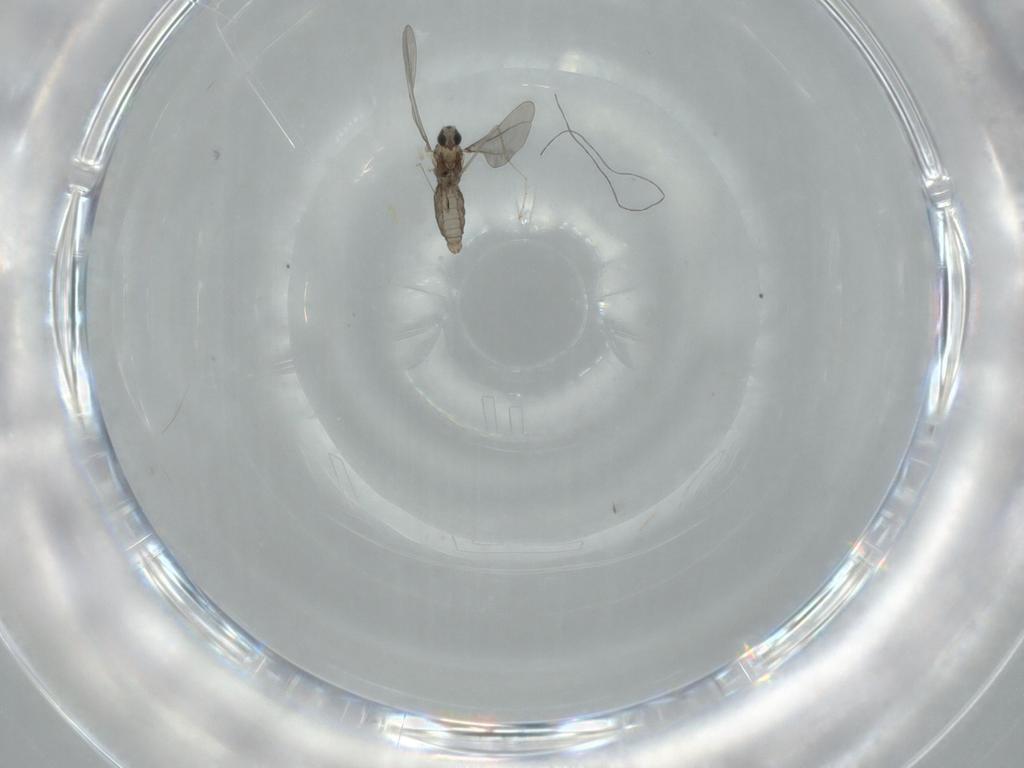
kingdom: Animalia
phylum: Arthropoda
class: Insecta
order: Diptera
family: Cecidomyiidae
